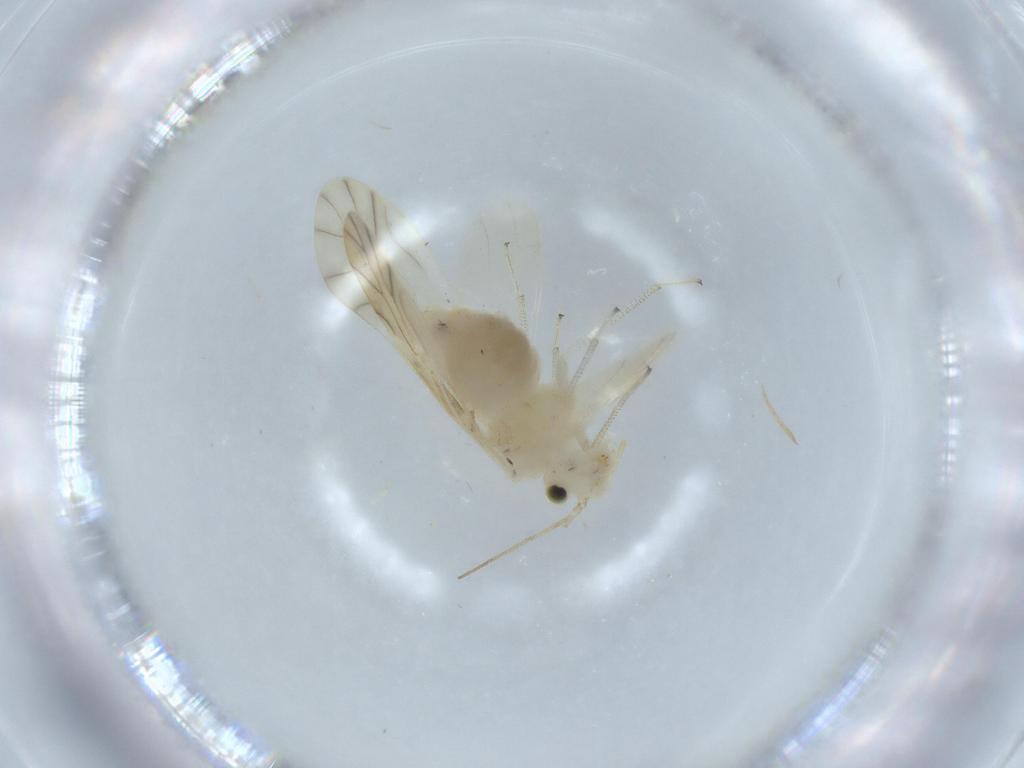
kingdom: Animalia
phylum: Arthropoda
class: Insecta
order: Psocodea
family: Caeciliusidae
